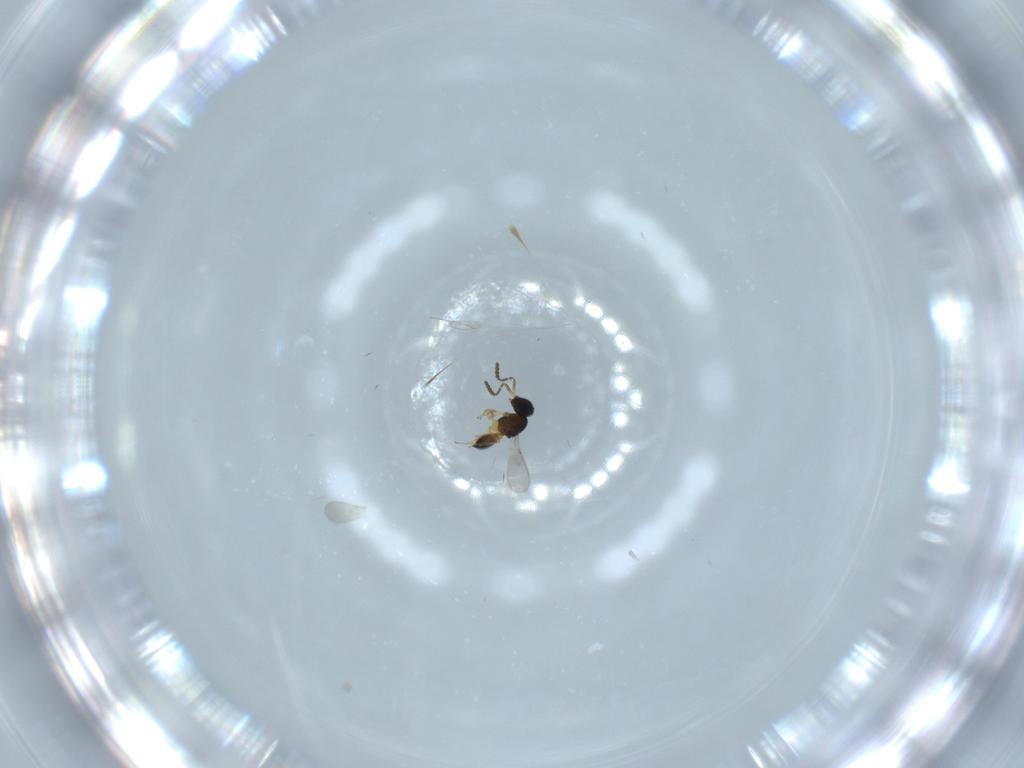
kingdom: Animalia
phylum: Arthropoda
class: Insecta
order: Hymenoptera
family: Scelionidae
